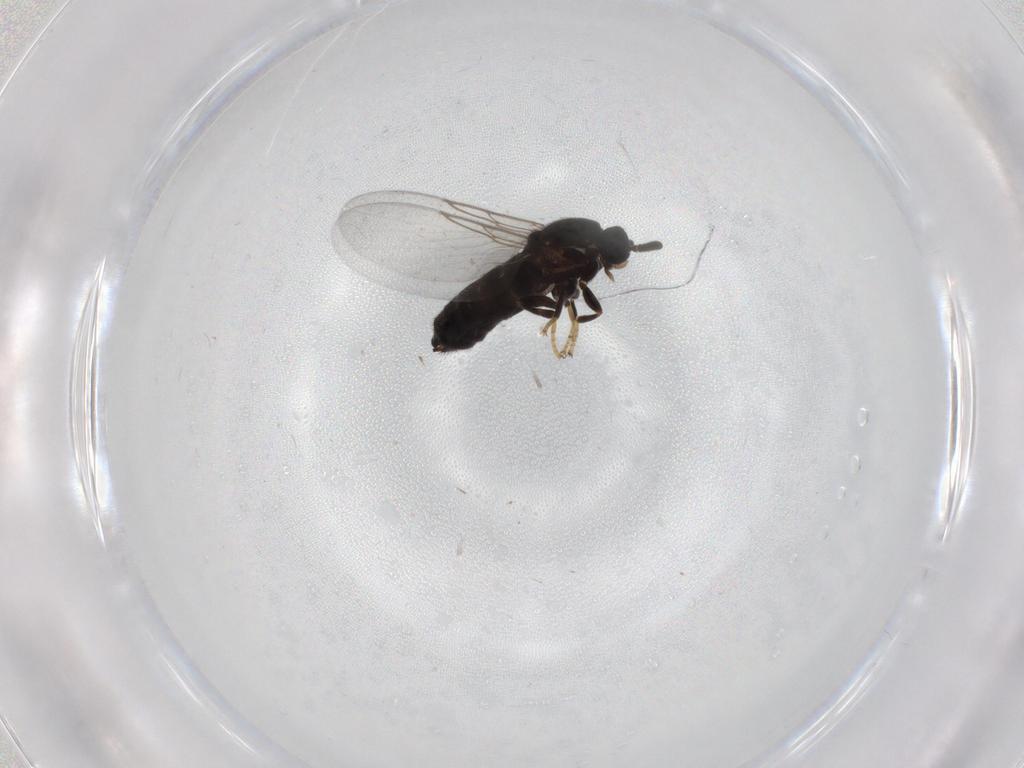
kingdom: Animalia
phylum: Arthropoda
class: Insecta
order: Diptera
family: Scatopsidae
